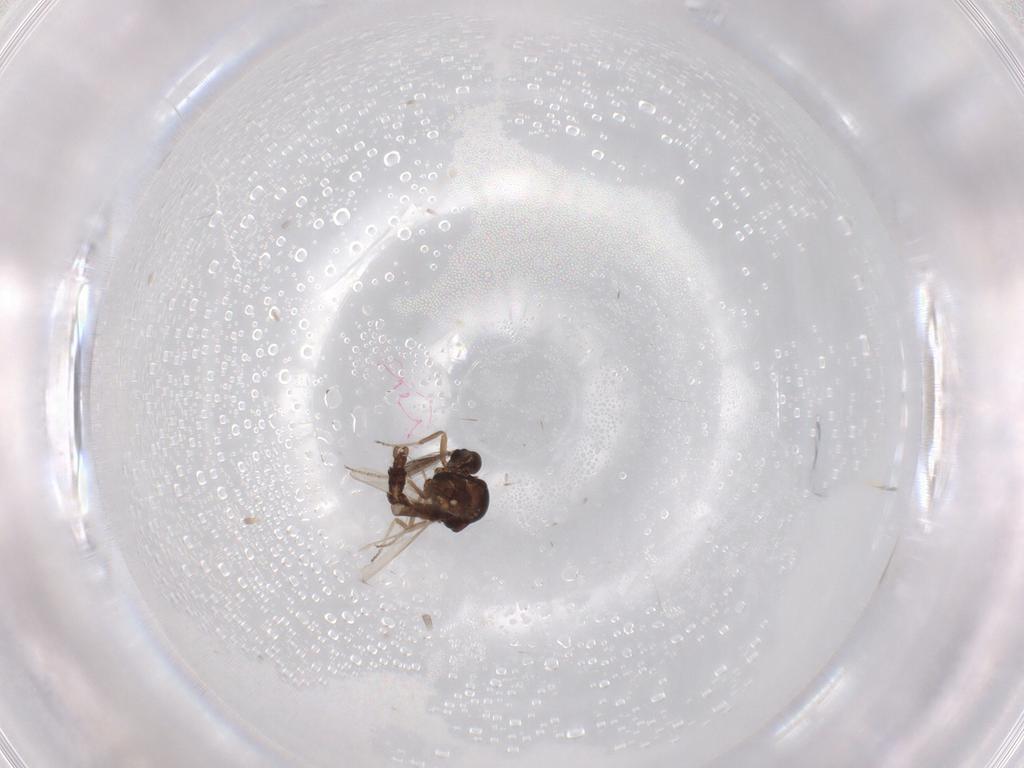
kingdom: Animalia
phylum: Arthropoda
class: Insecta
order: Diptera
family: Ceratopogonidae
